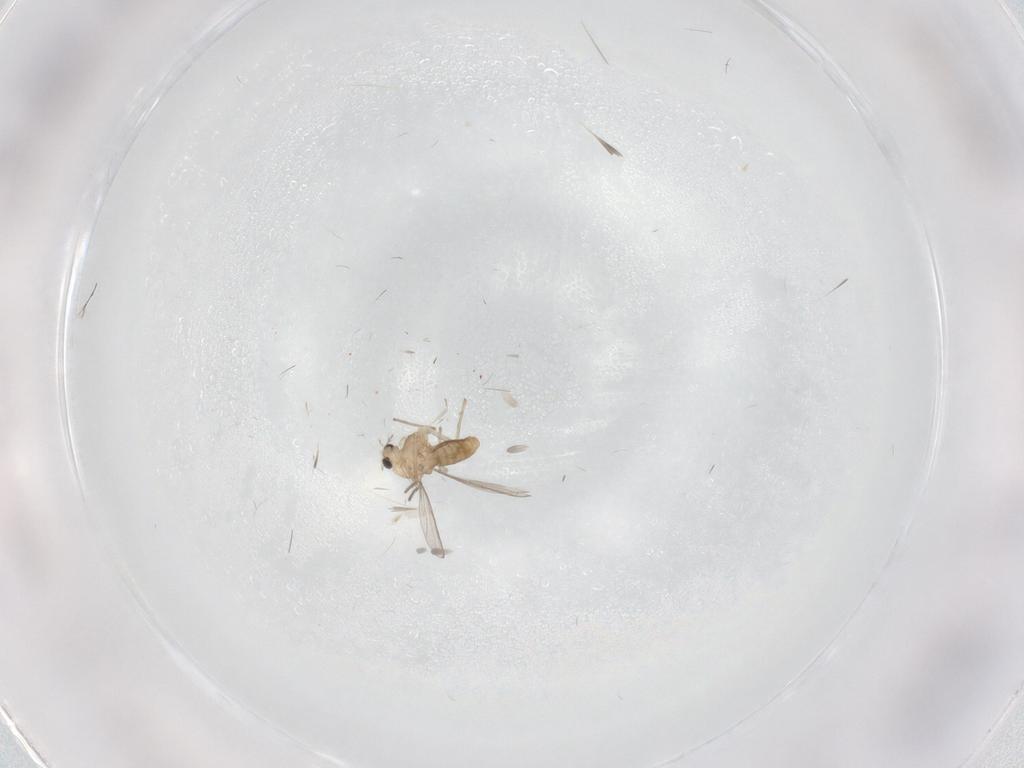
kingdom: Animalia
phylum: Arthropoda
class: Insecta
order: Diptera
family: Chironomidae
